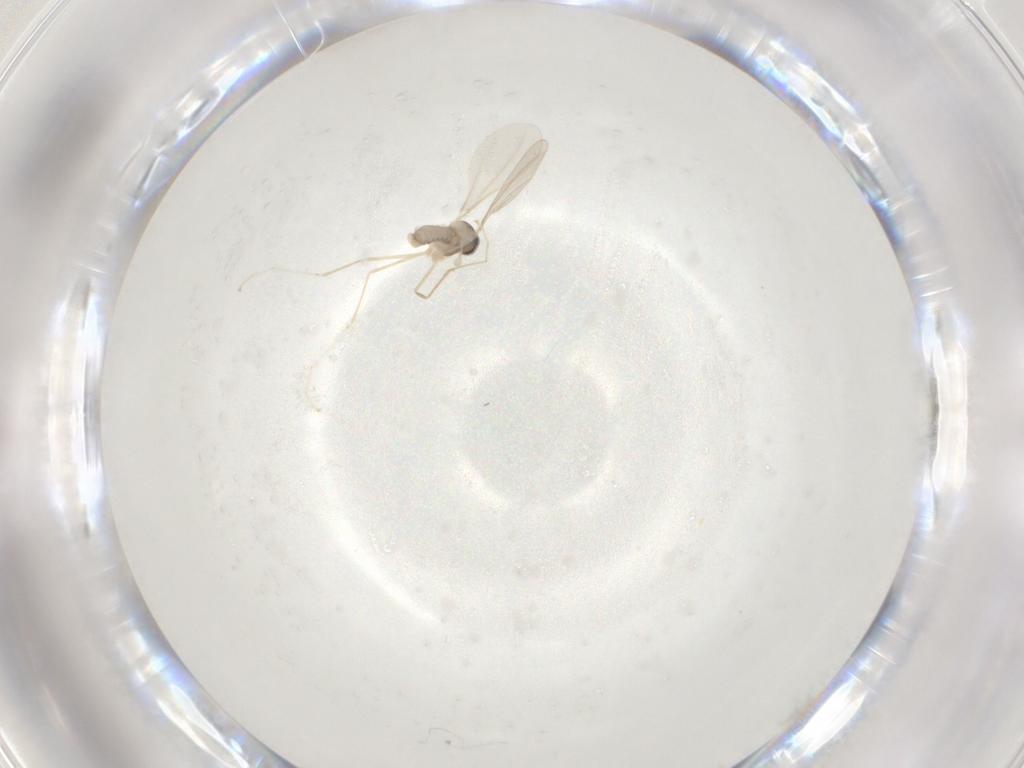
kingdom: Animalia
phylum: Arthropoda
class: Insecta
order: Diptera
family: Cecidomyiidae
